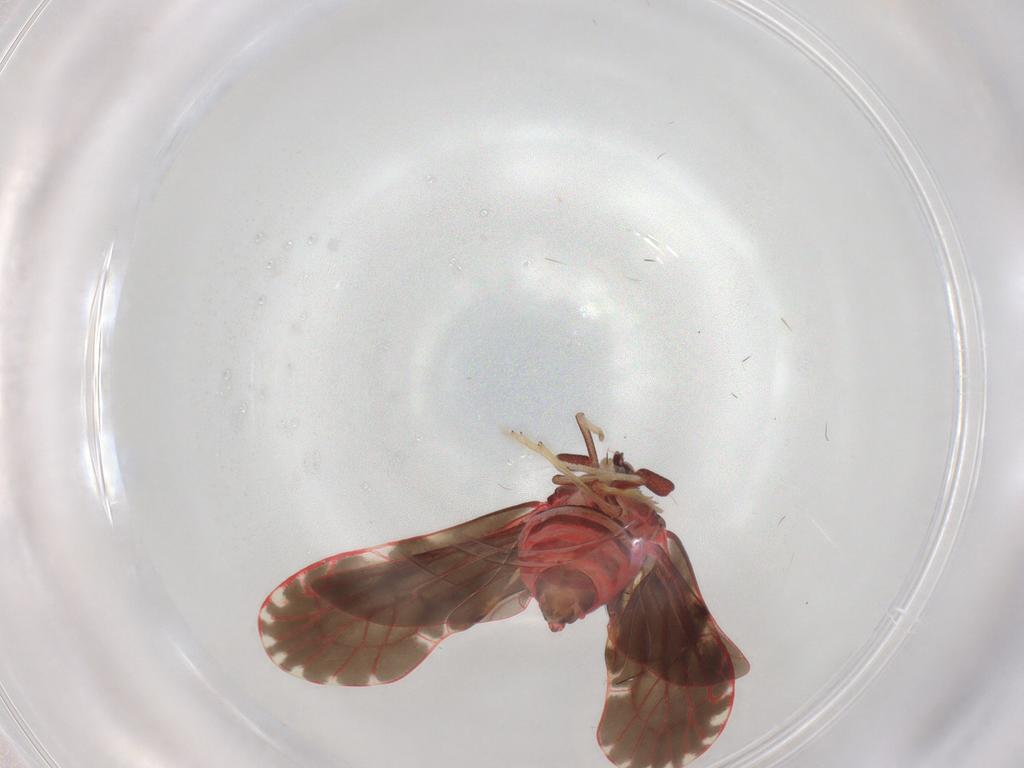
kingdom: Animalia
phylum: Arthropoda
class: Insecta
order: Hemiptera
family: Derbidae
